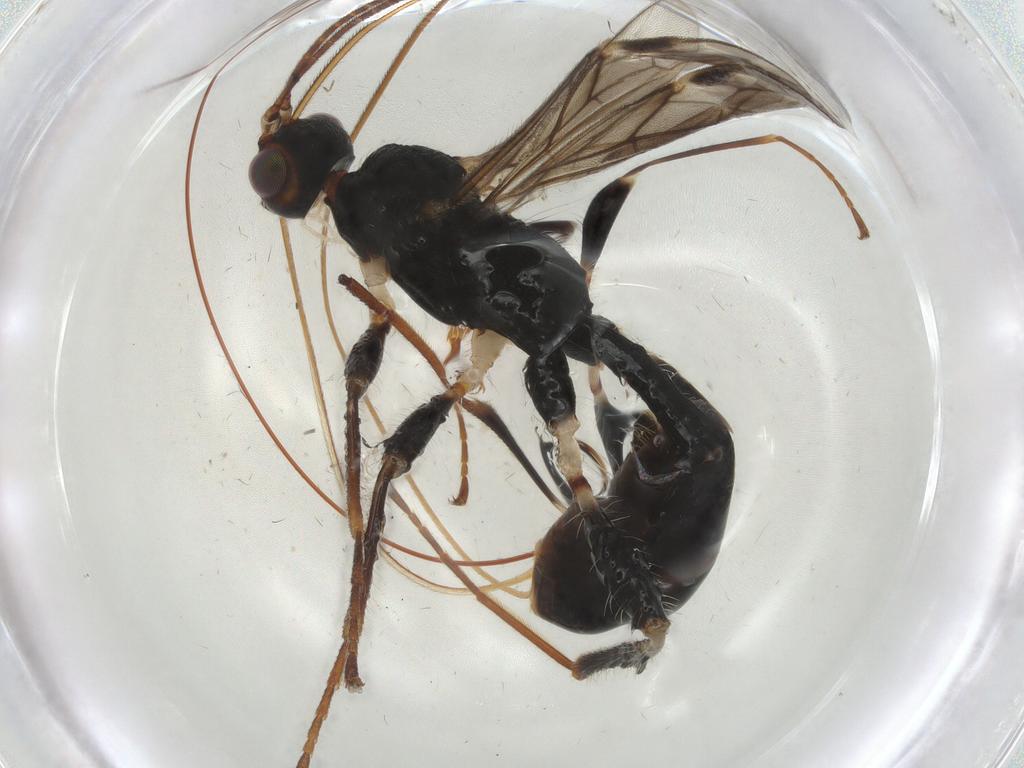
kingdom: Animalia
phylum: Arthropoda
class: Insecta
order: Hymenoptera
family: Braconidae
